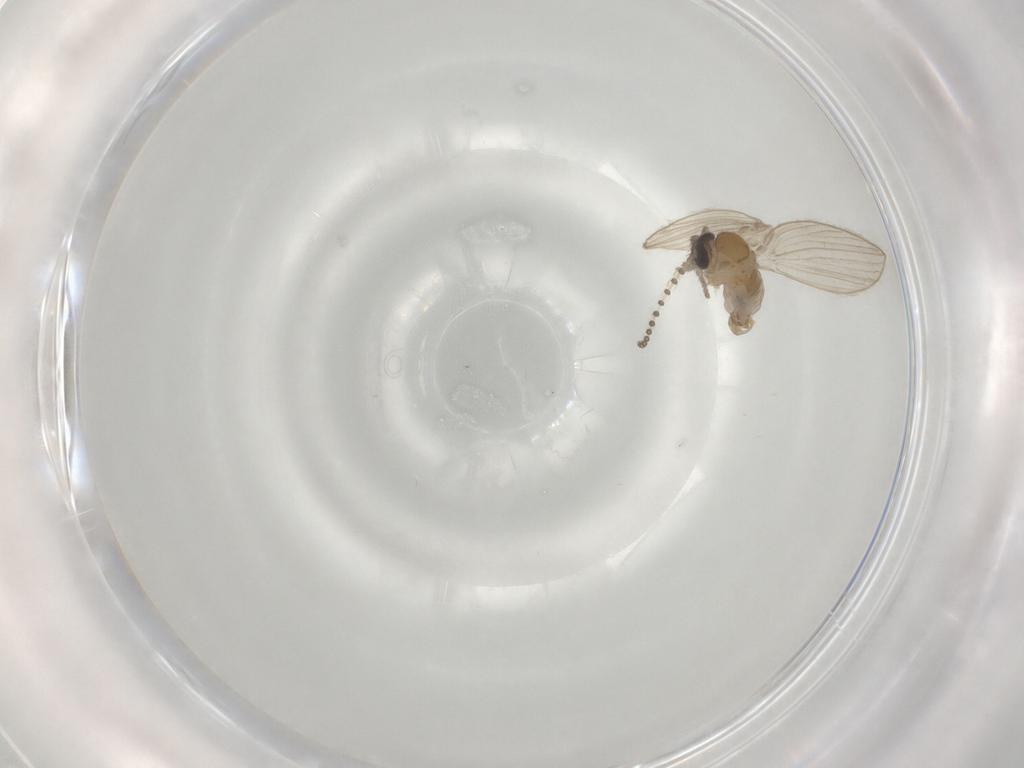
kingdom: Animalia
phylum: Arthropoda
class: Insecta
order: Diptera
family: Psychodidae
